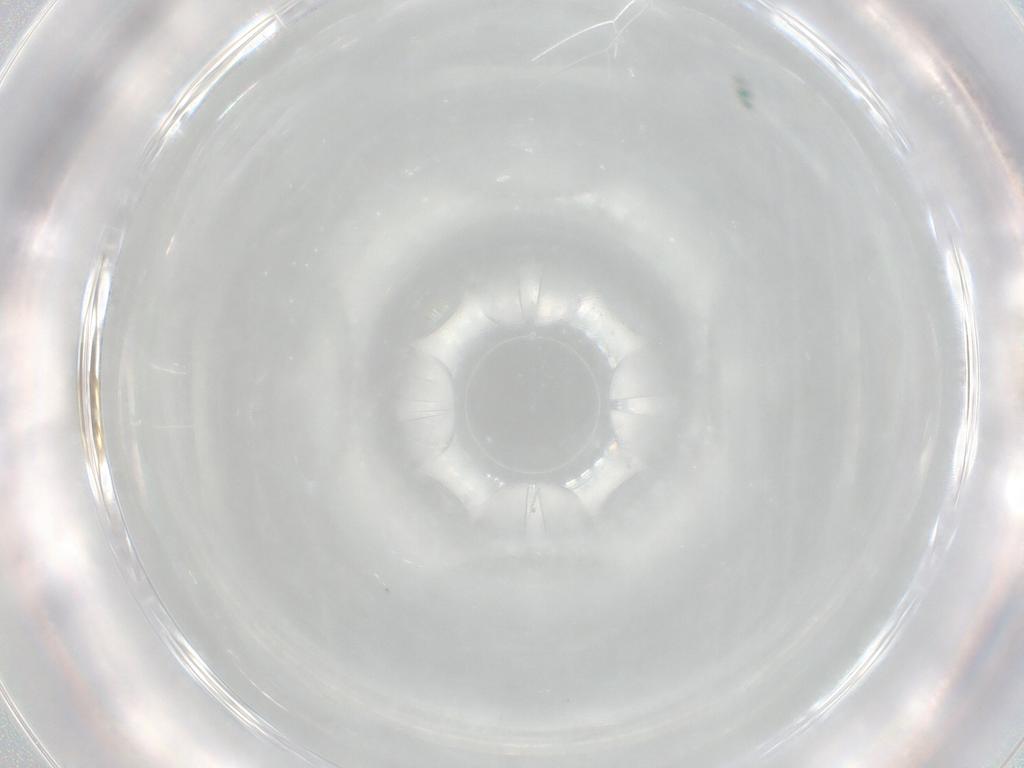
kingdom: Animalia
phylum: Arthropoda
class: Insecta
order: Diptera
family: Chironomidae
